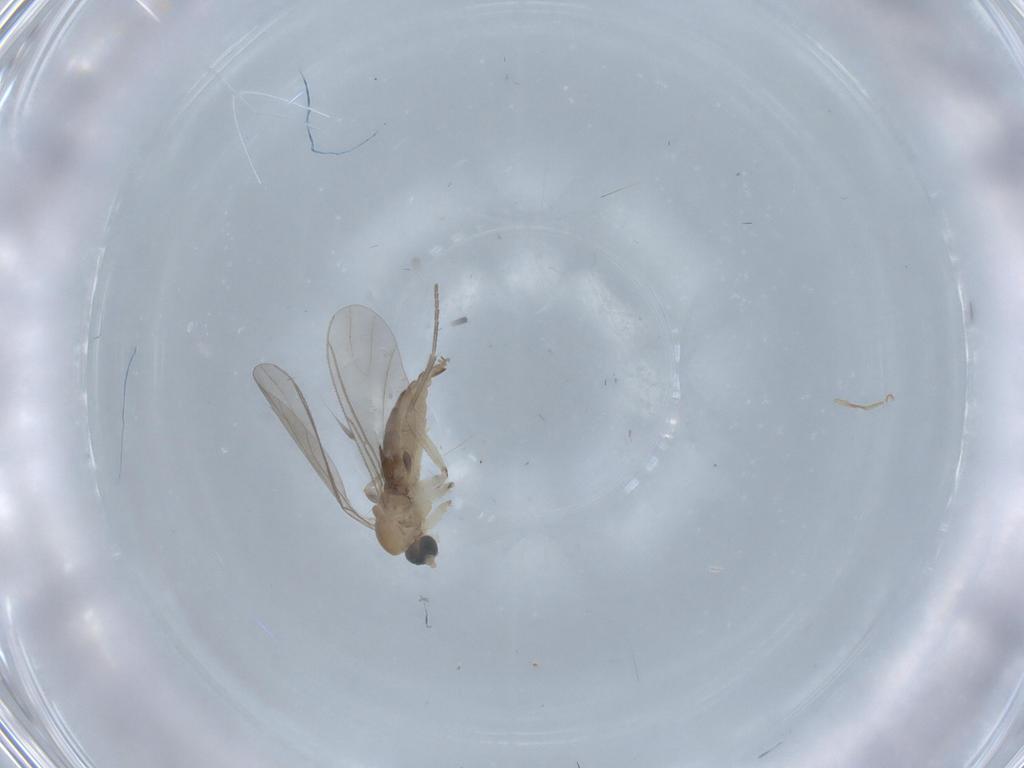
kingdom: Animalia
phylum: Arthropoda
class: Insecta
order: Diptera
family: Sciaridae
